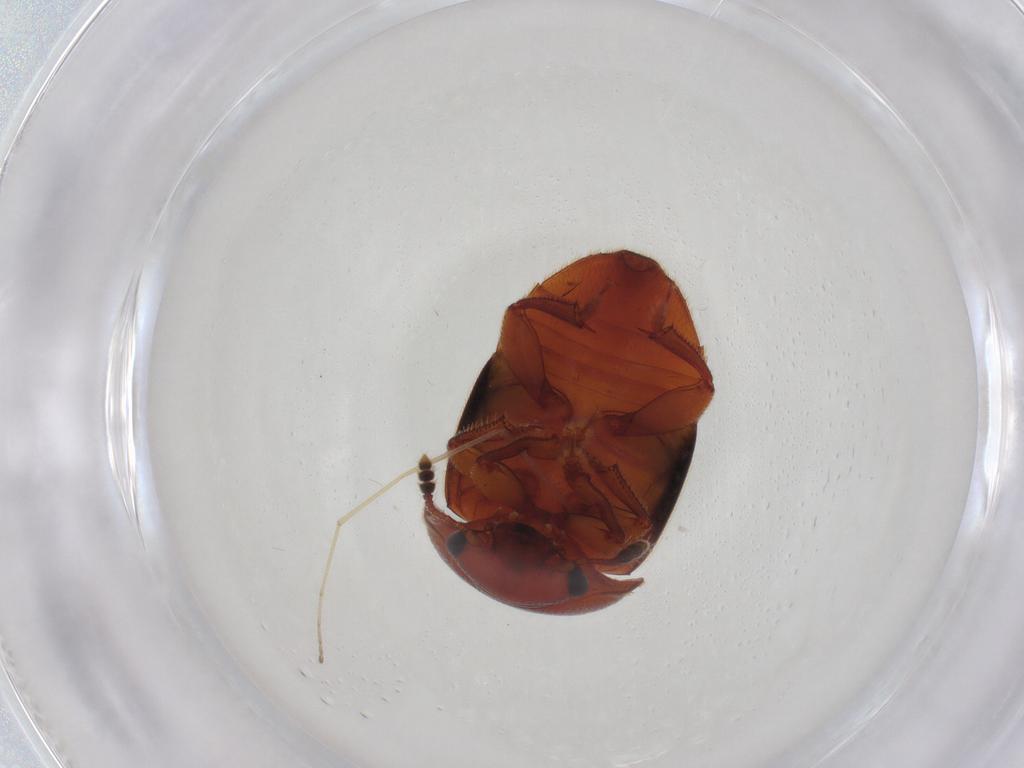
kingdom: Animalia
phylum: Arthropoda
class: Insecta
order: Coleoptera
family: Nitidulidae
